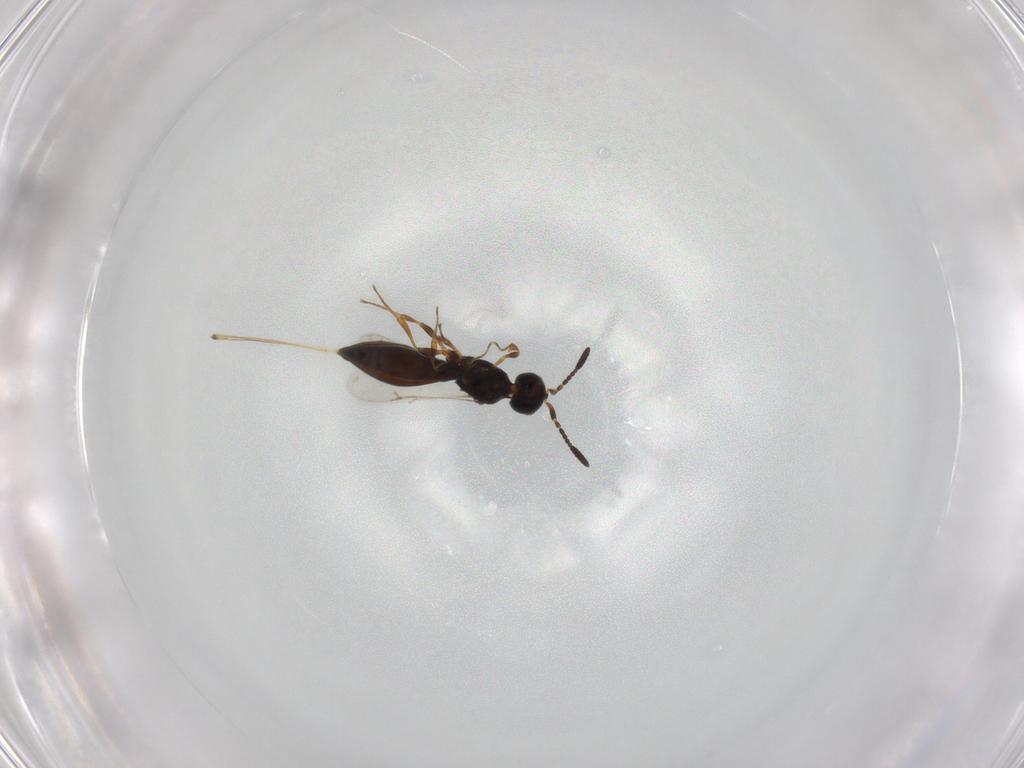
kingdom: Animalia
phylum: Arthropoda
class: Insecta
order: Hymenoptera
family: Scelionidae
